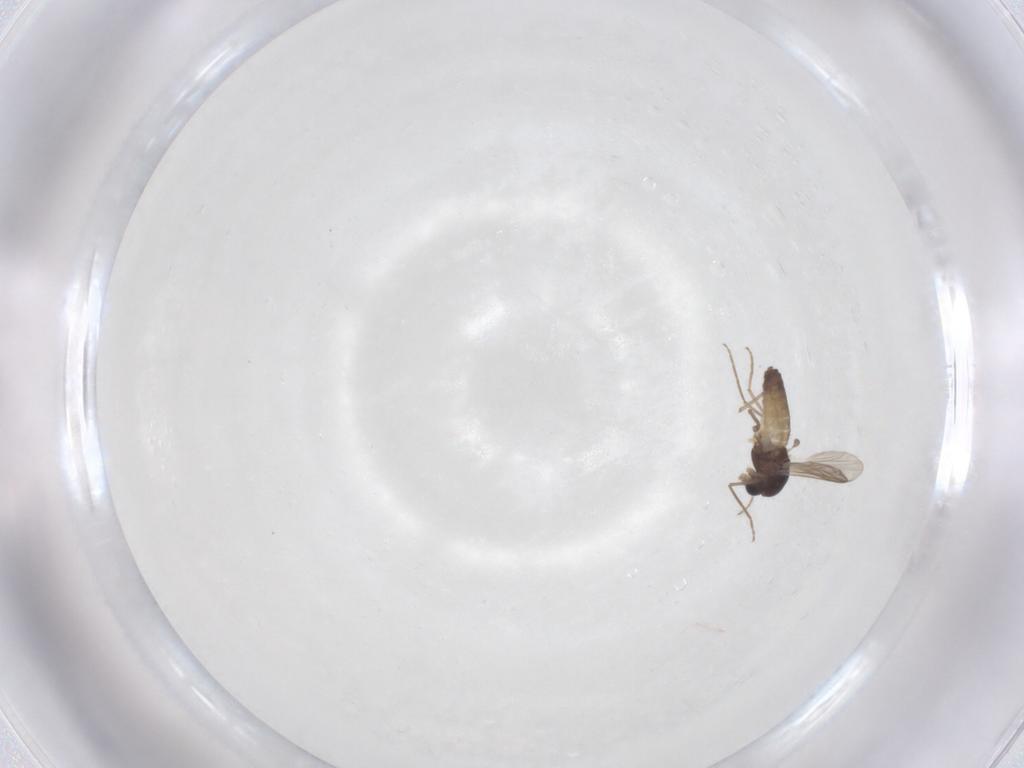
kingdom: Animalia
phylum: Arthropoda
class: Insecta
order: Diptera
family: Chironomidae
